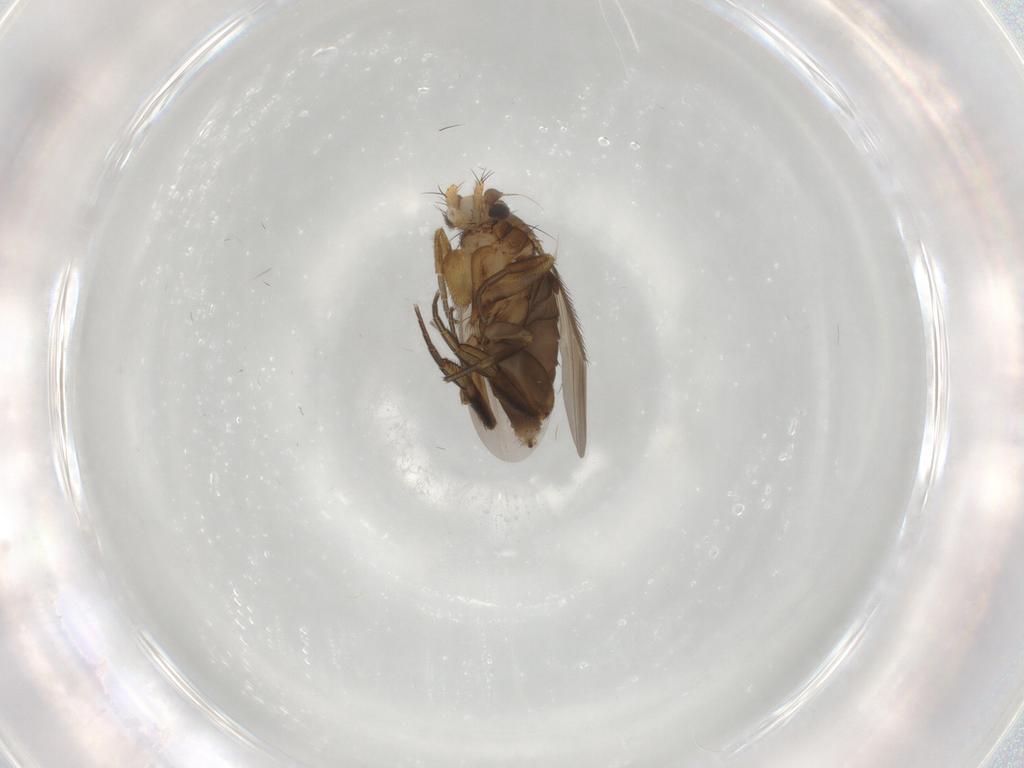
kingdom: Animalia
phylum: Arthropoda
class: Insecta
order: Diptera
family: Phoridae
